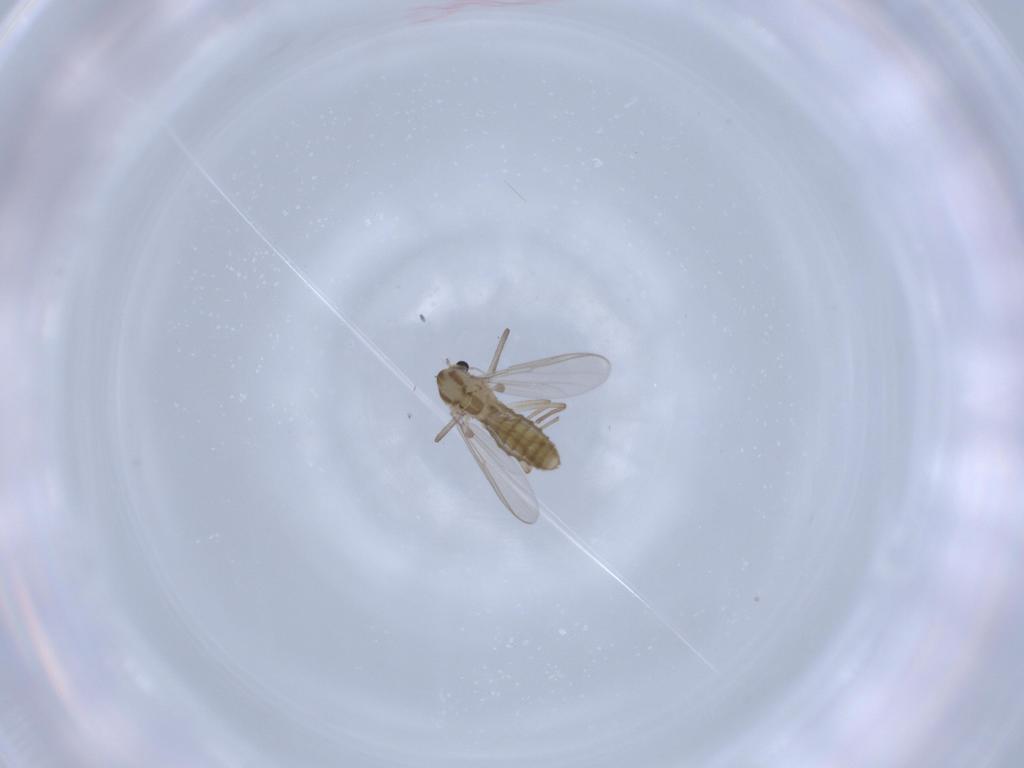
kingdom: Animalia
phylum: Arthropoda
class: Insecta
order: Diptera
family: Chironomidae
